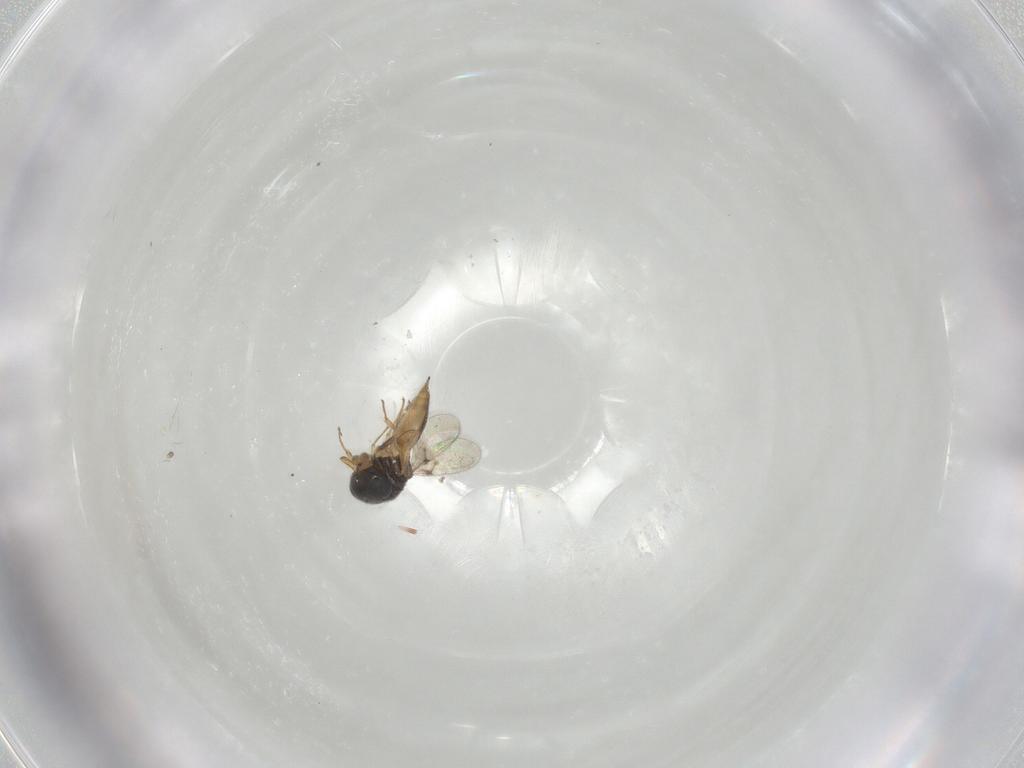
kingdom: Animalia
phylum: Arthropoda
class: Insecta
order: Hymenoptera
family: Scelionidae
